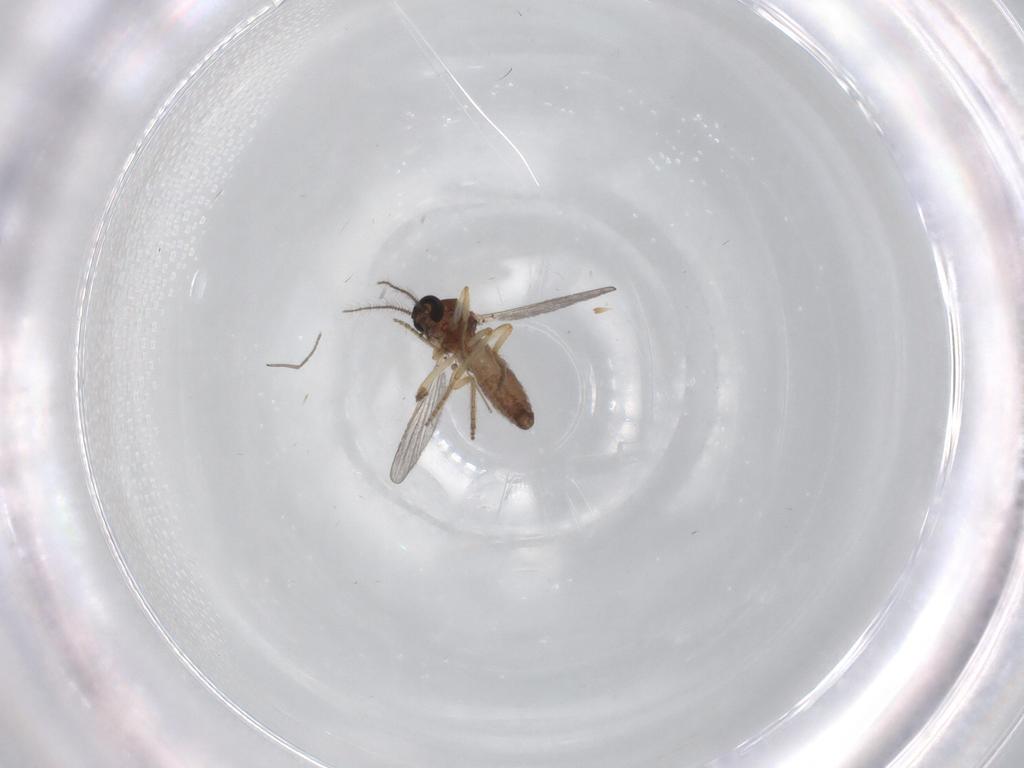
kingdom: Animalia
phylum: Arthropoda
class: Insecta
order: Diptera
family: Ceratopogonidae
